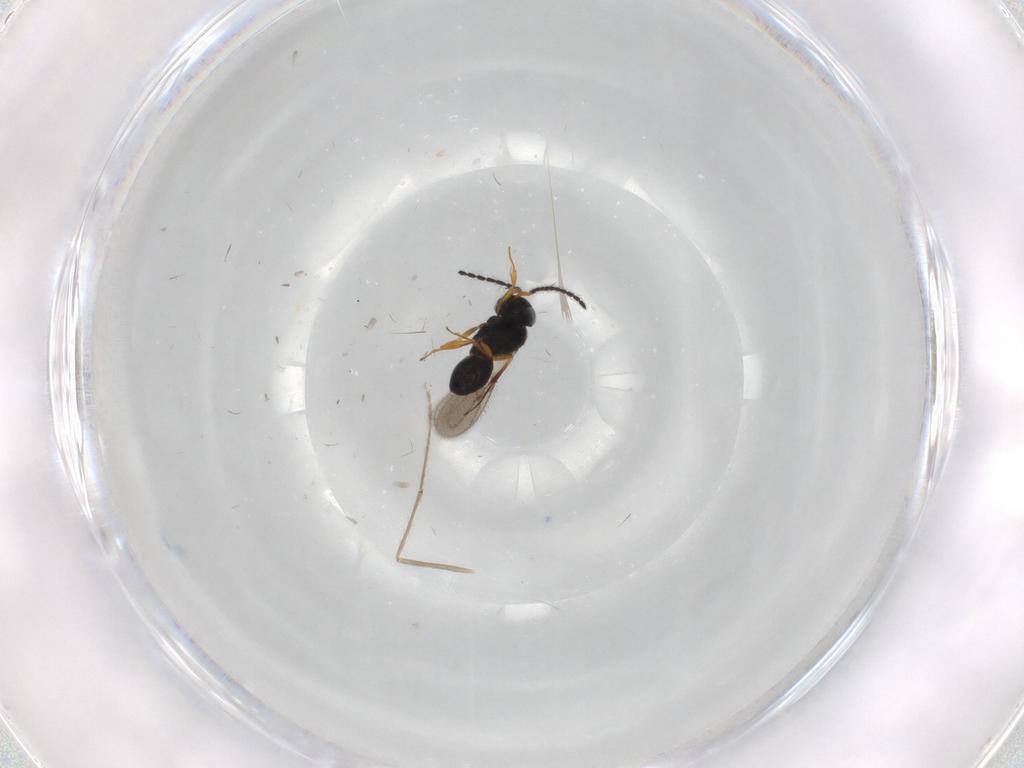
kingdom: Animalia
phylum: Arthropoda
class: Insecta
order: Hymenoptera
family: Scelionidae
